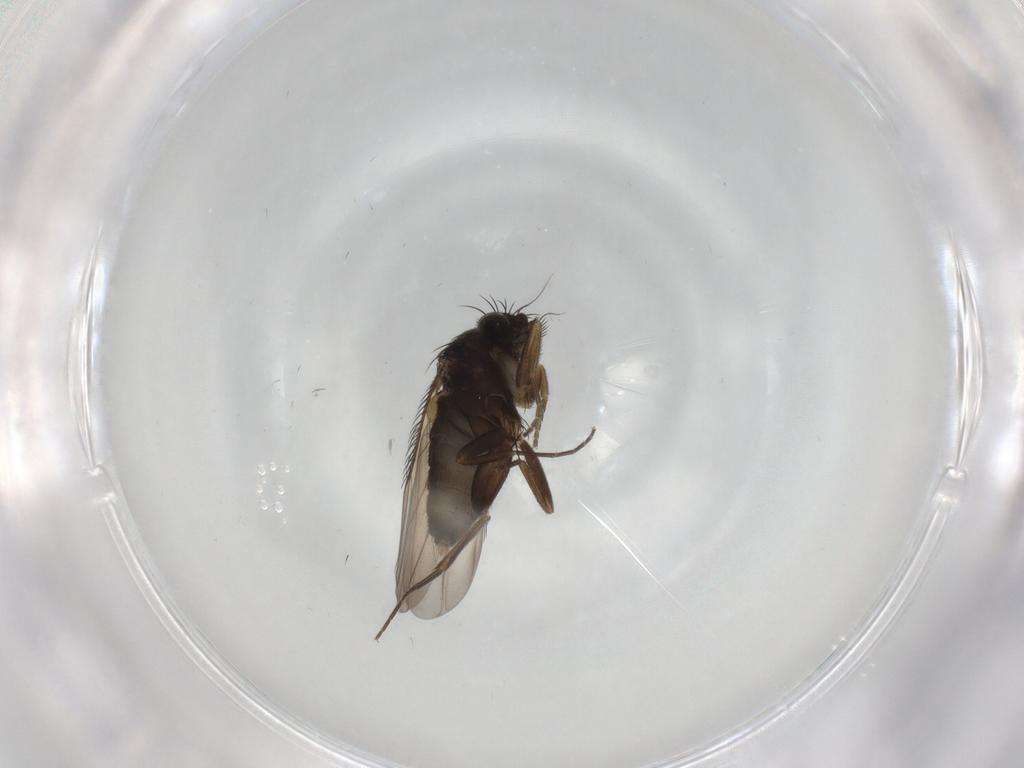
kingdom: Animalia
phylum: Arthropoda
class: Insecta
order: Diptera
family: Phoridae
